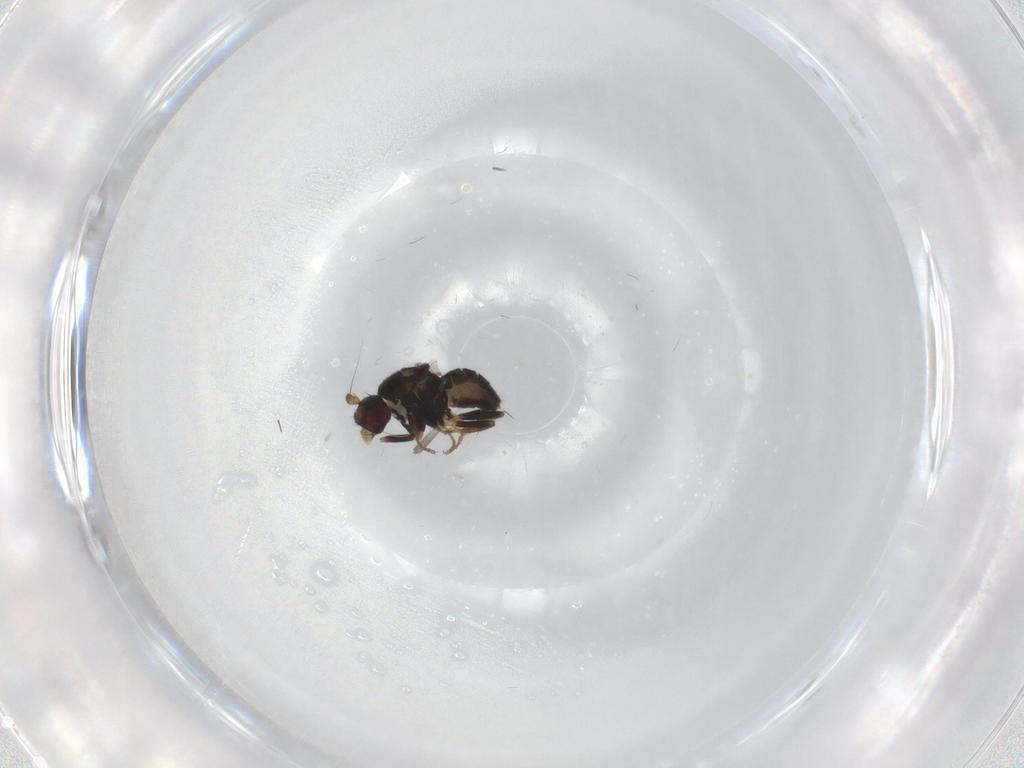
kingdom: Animalia
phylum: Arthropoda
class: Insecta
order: Diptera
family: Sphaeroceridae
